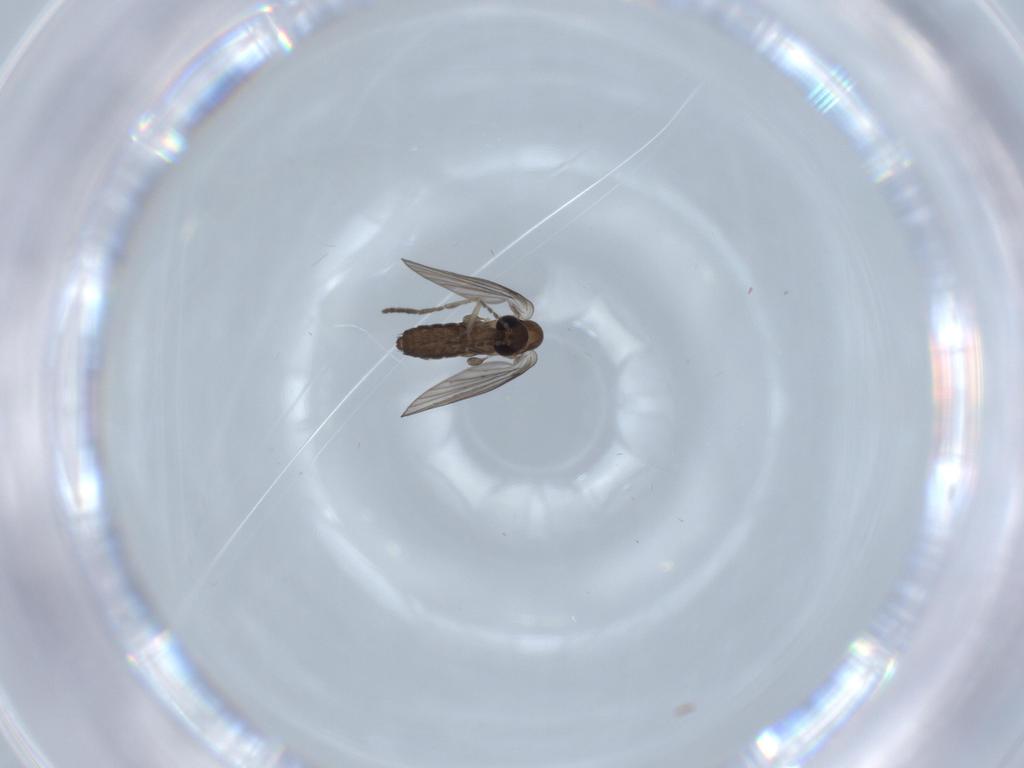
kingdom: Animalia
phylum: Arthropoda
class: Insecta
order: Diptera
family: Psychodidae
